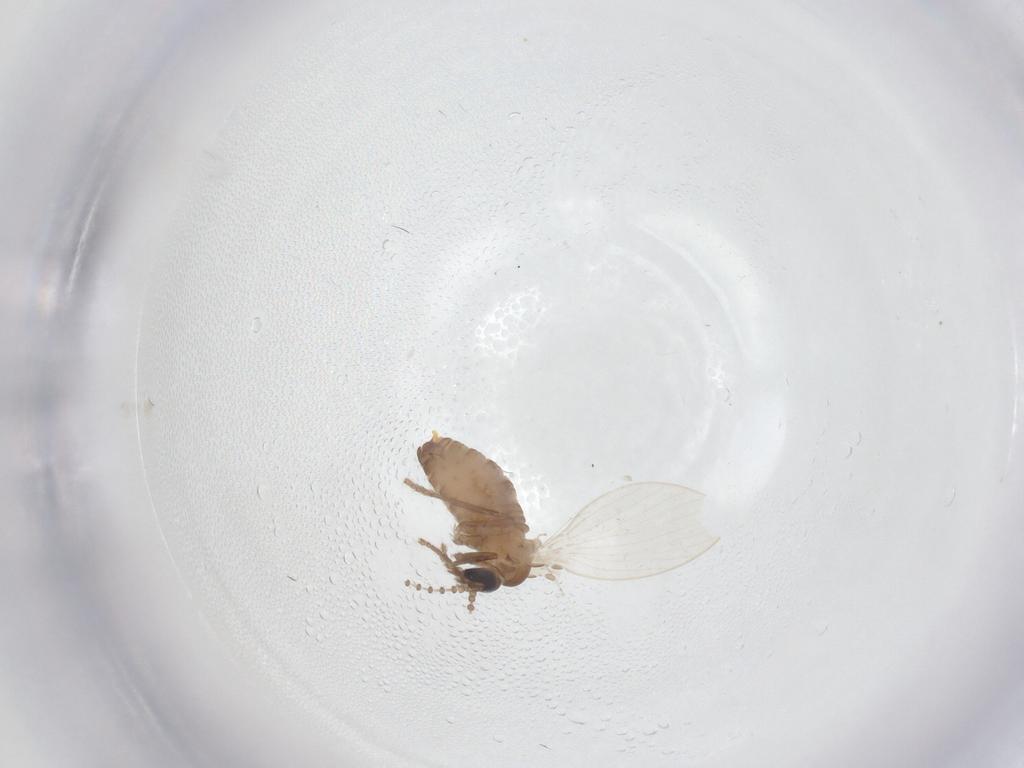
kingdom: Animalia
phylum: Arthropoda
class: Insecta
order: Diptera
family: Chironomidae
